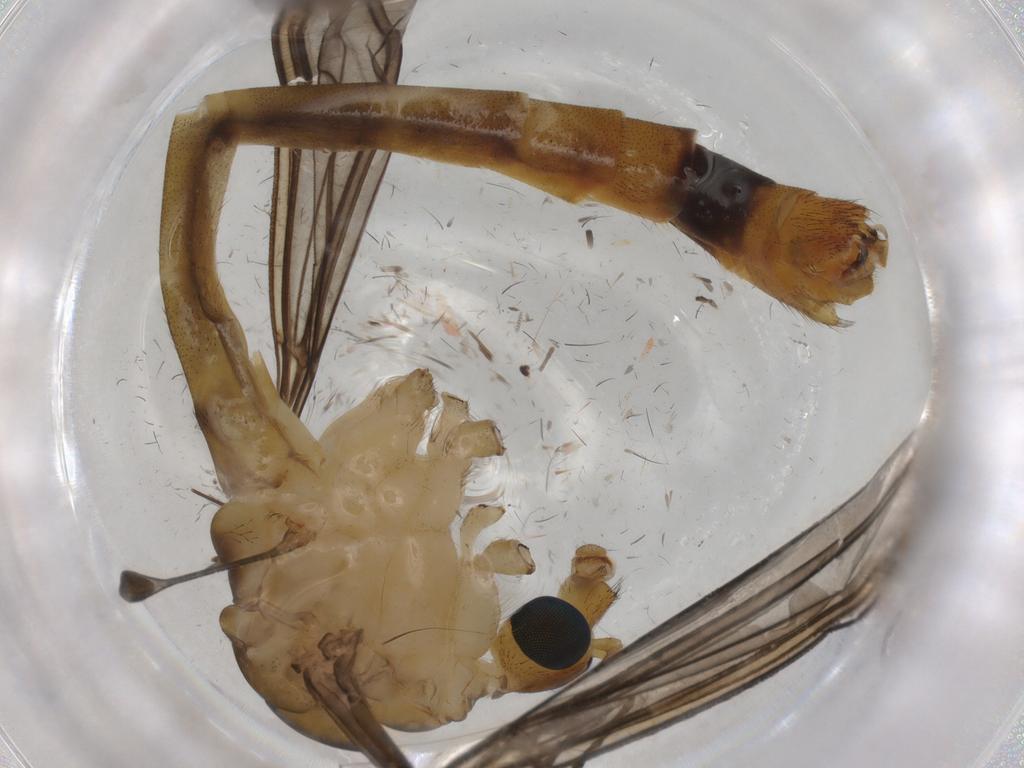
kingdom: Animalia
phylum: Arthropoda
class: Insecta
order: Diptera
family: Tipulidae
